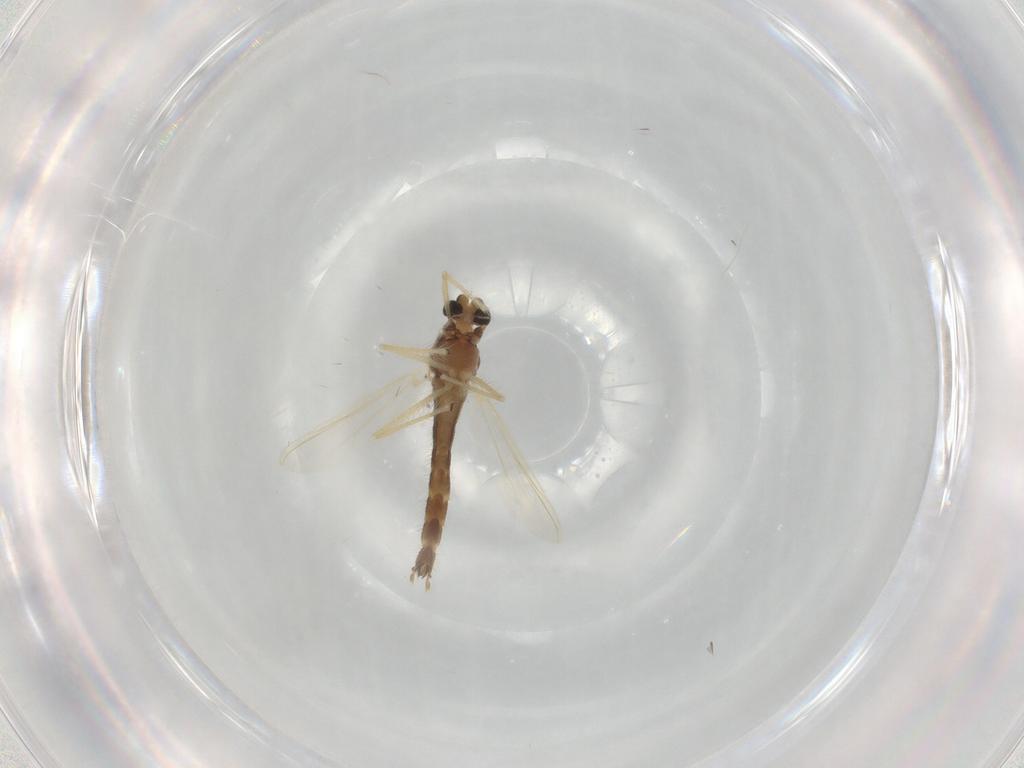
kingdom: Animalia
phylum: Arthropoda
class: Insecta
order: Diptera
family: Chironomidae
